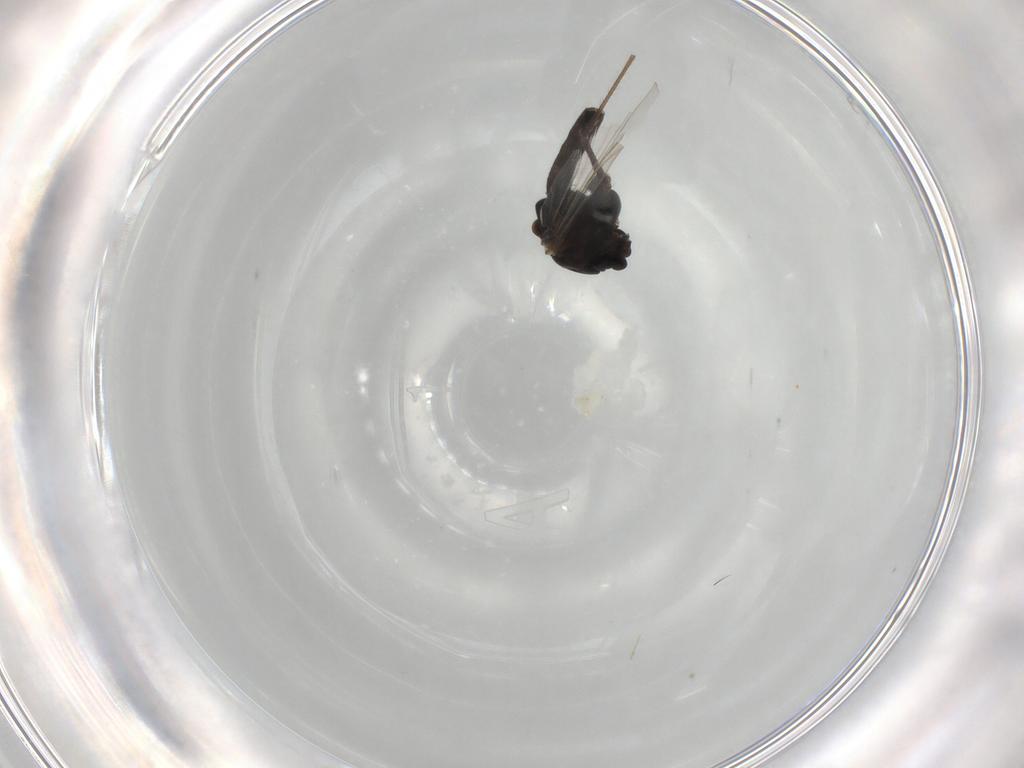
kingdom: Animalia
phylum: Arthropoda
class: Insecta
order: Diptera
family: Chironomidae
